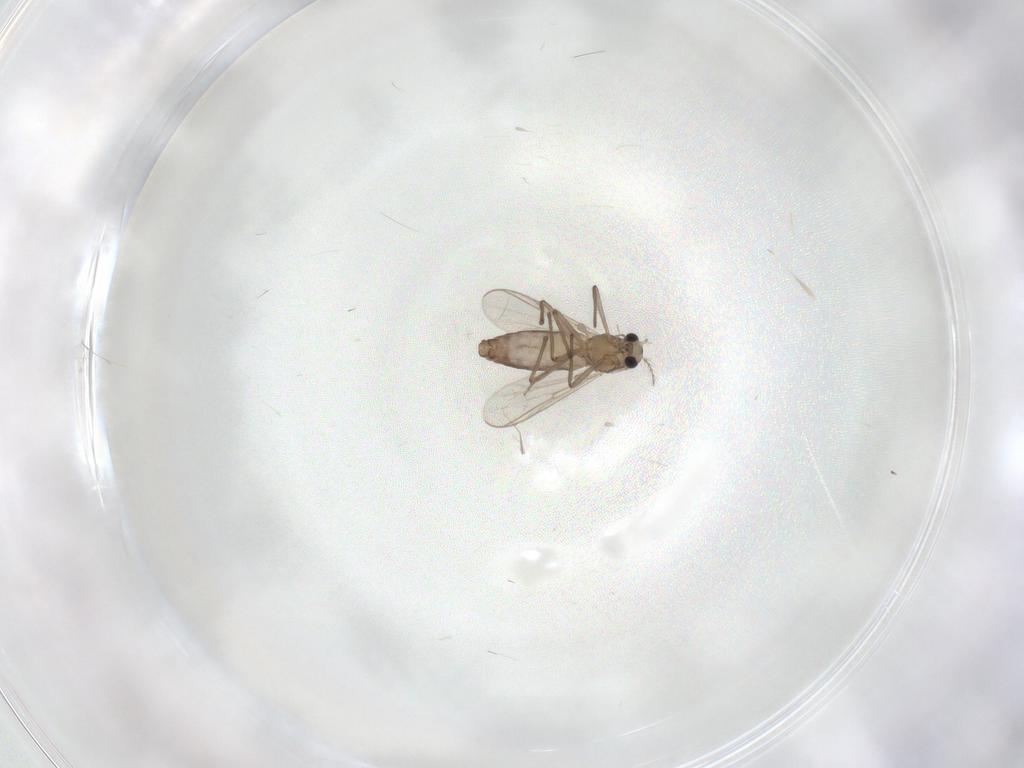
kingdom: Animalia
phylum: Arthropoda
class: Insecta
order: Diptera
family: Chironomidae
